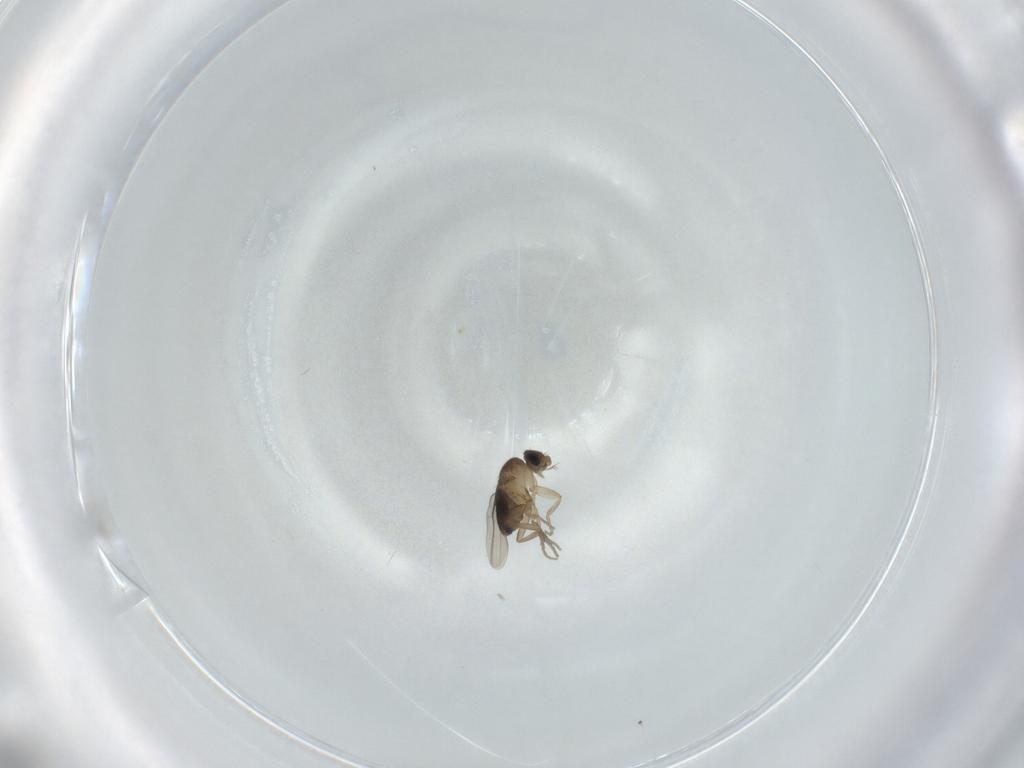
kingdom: Animalia
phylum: Arthropoda
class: Insecta
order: Diptera
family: Phoridae
